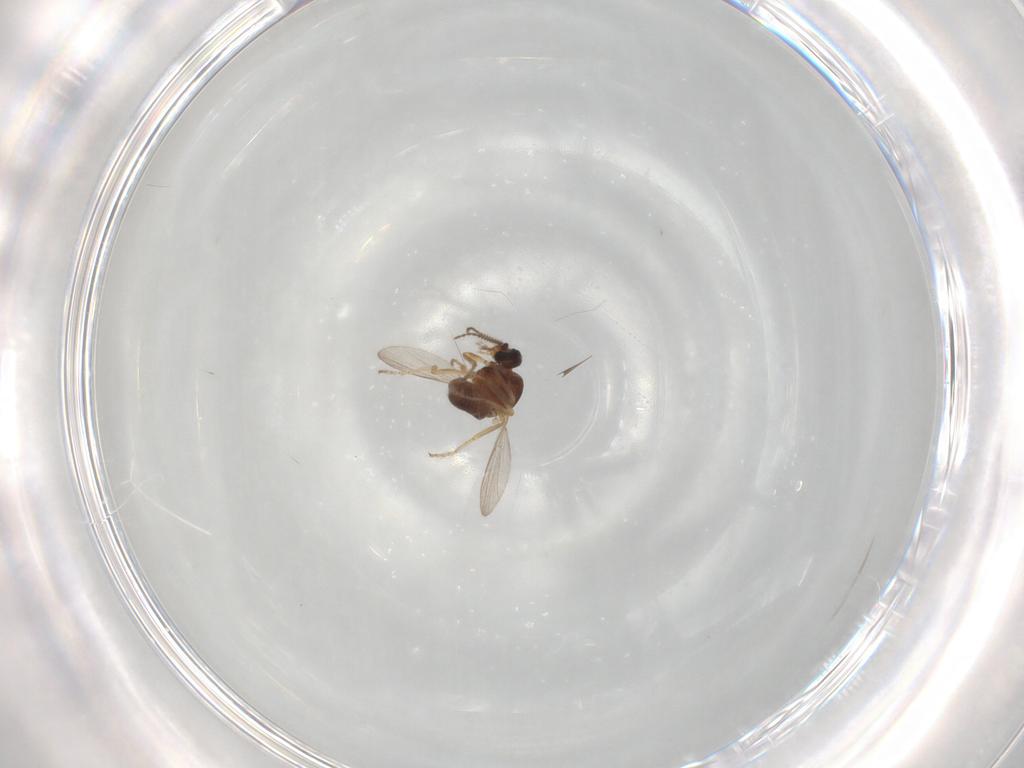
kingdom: Animalia
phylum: Arthropoda
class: Insecta
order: Diptera
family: Ceratopogonidae
